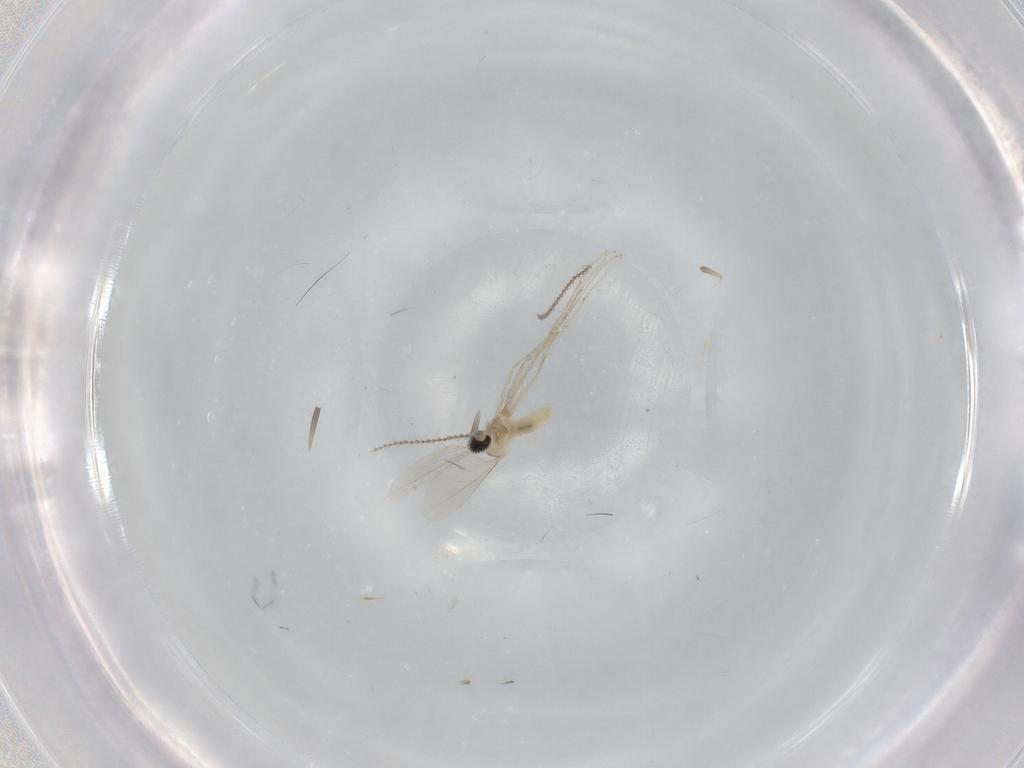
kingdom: Animalia
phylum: Arthropoda
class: Insecta
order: Diptera
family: Cecidomyiidae
